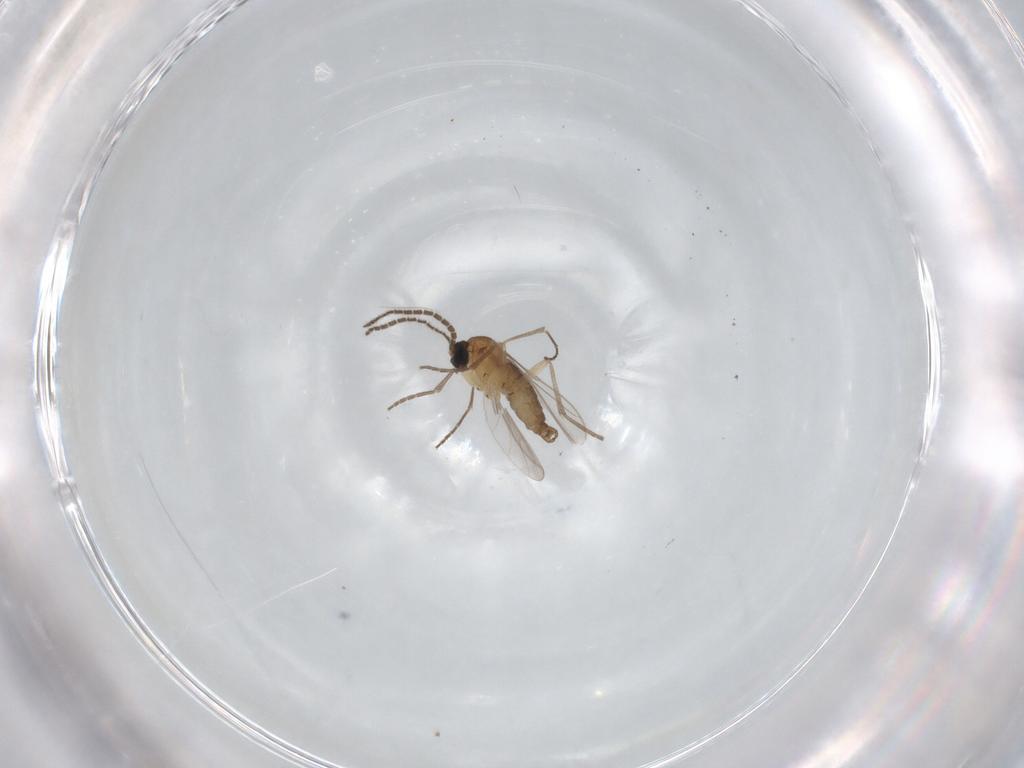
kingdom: Animalia
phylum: Arthropoda
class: Insecta
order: Diptera
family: Sciaridae
